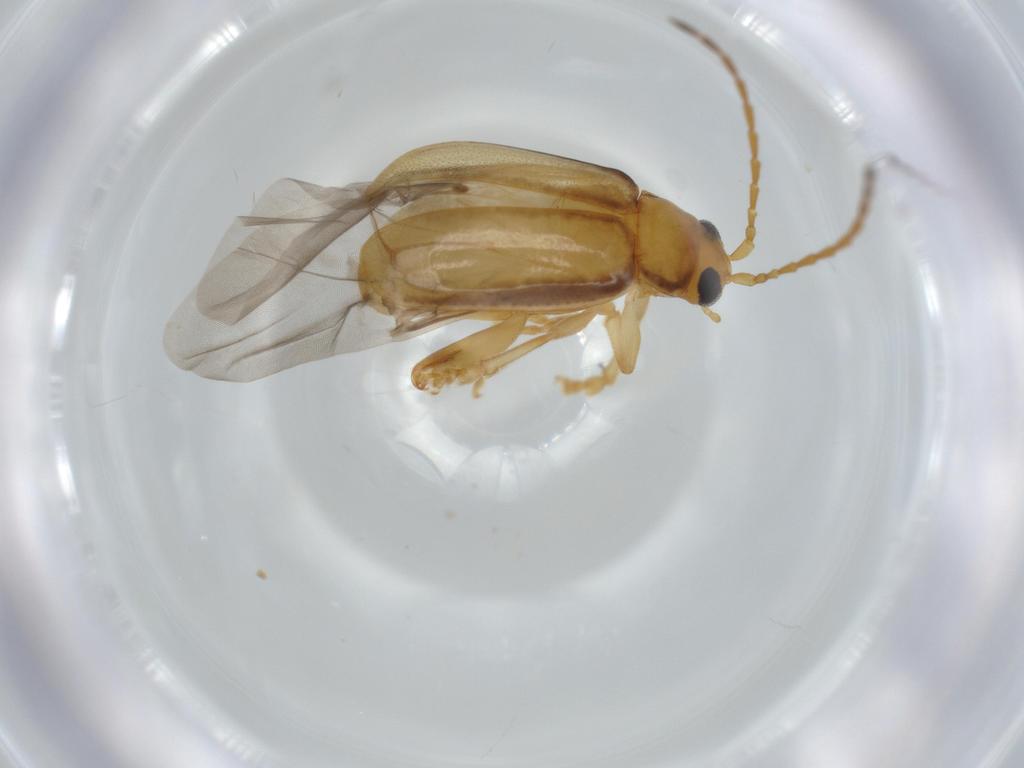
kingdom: Animalia
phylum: Arthropoda
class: Insecta
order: Coleoptera
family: Chrysomelidae
